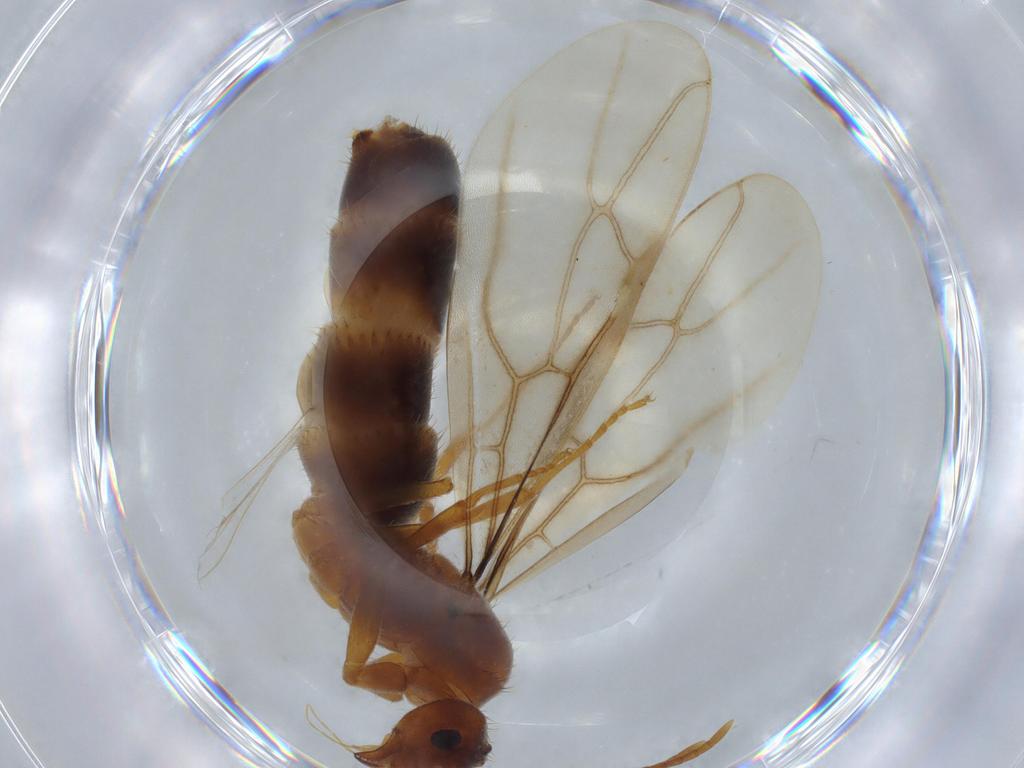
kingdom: Animalia
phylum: Arthropoda
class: Insecta
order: Hymenoptera
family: Formicidae
